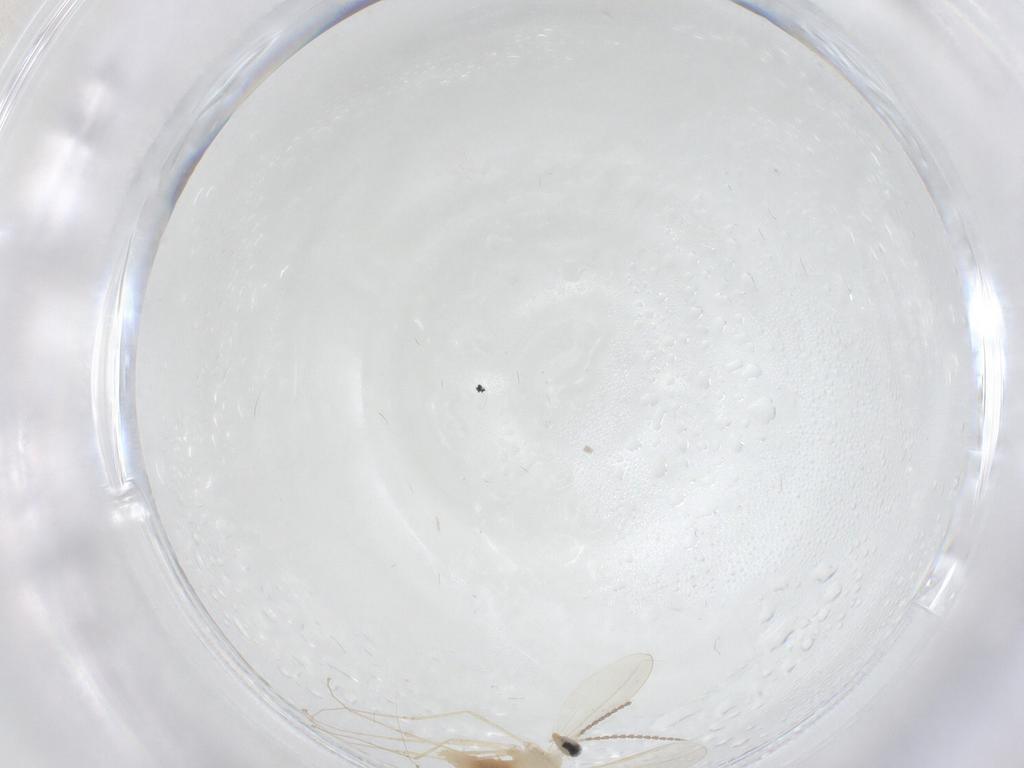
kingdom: Animalia
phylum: Arthropoda
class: Insecta
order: Diptera
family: Cecidomyiidae
